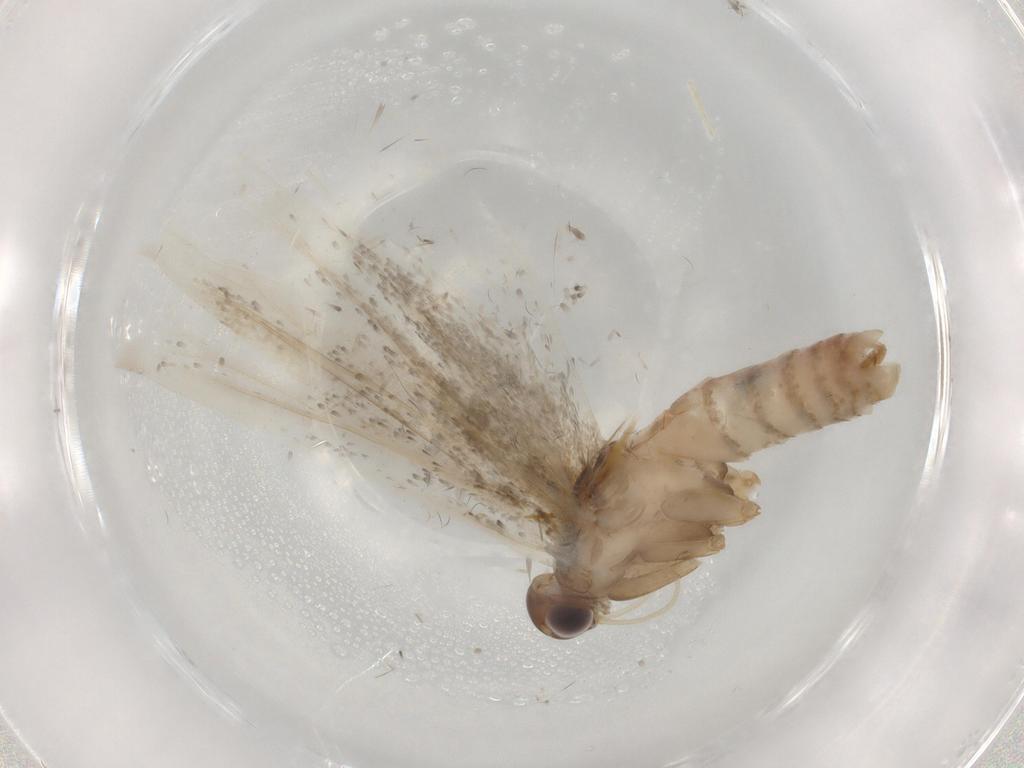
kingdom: Animalia
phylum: Arthropoda
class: Insecta
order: Lepidoptera
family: Gelechiidae
